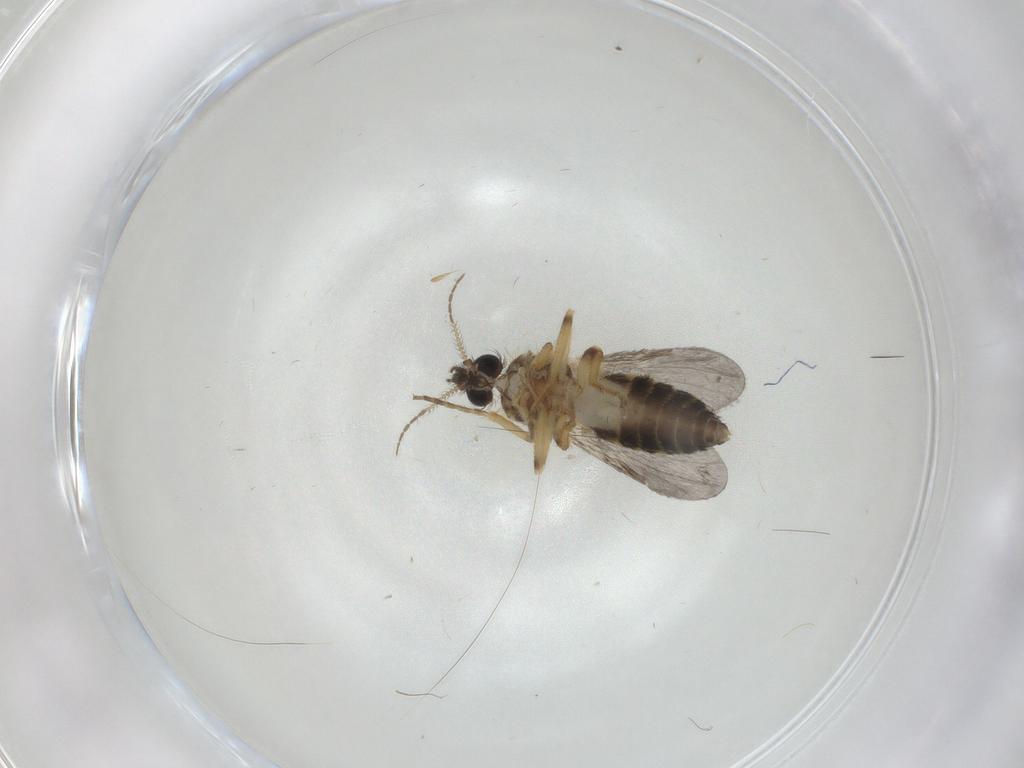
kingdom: Animalia
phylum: Arthropoda
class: Insecta
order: Diptera
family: Ceratopogonidae
